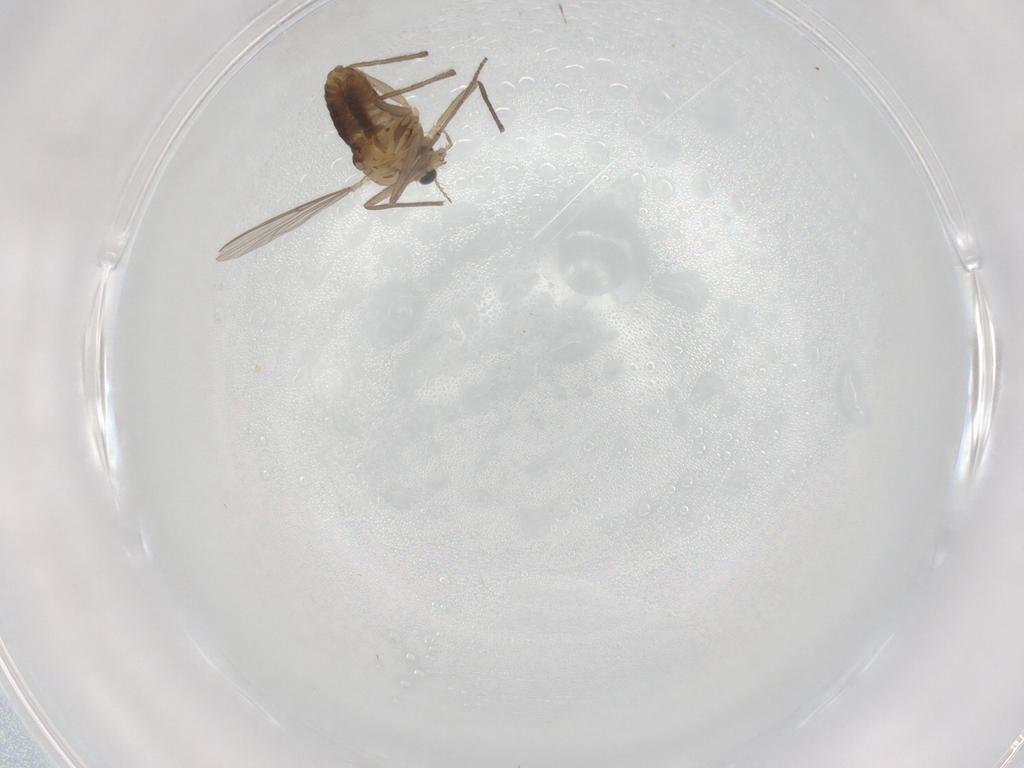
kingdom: Animalia
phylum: Arthropoda
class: Insecta
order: Diptera
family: Chironomidae
